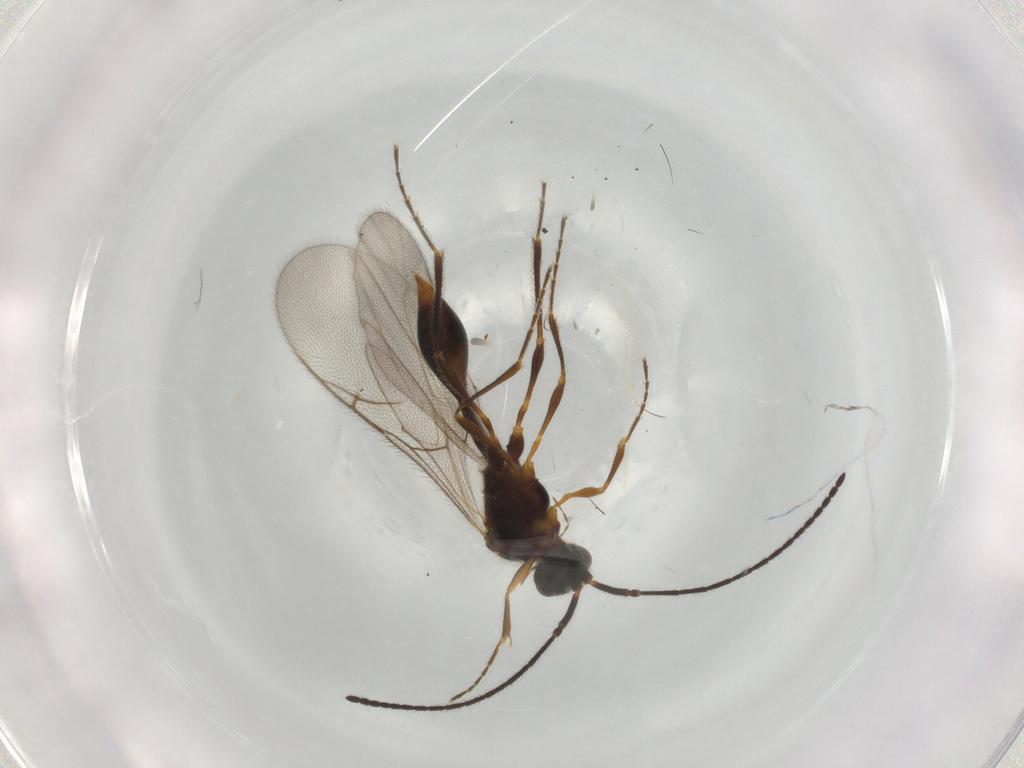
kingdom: Animalia
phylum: Arthropoda
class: Insecta
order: Hymenoptera
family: Diapriidae
